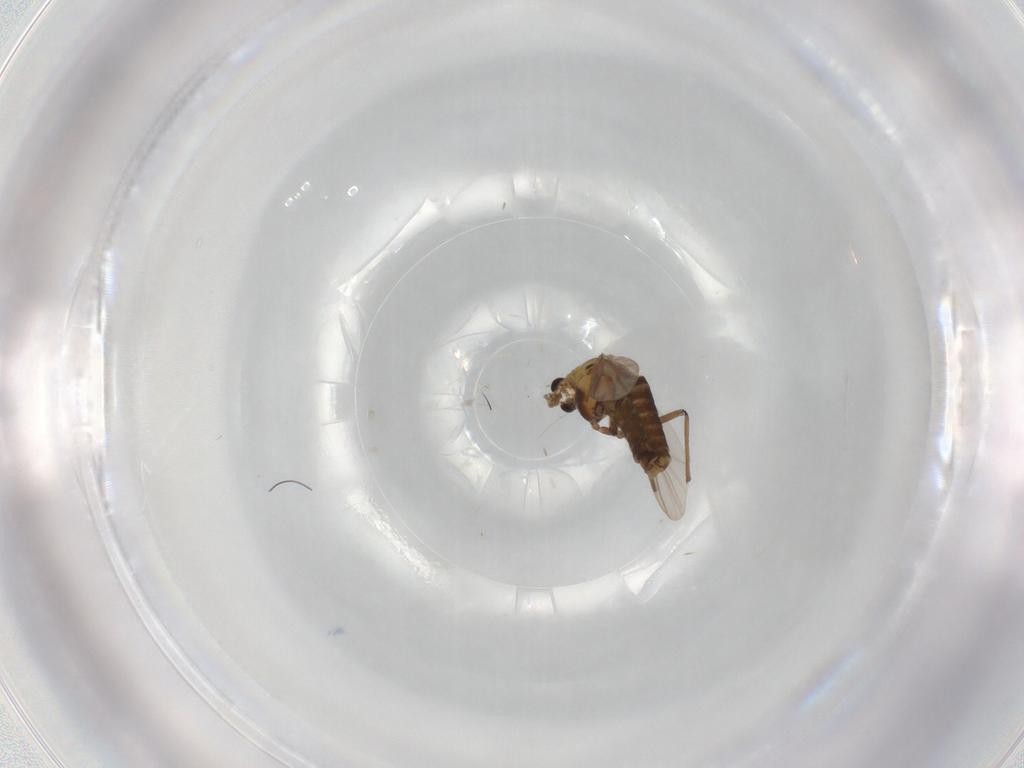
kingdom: Animalia
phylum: Arthropoda
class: Insecta
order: Diptera
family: Chironomidae
